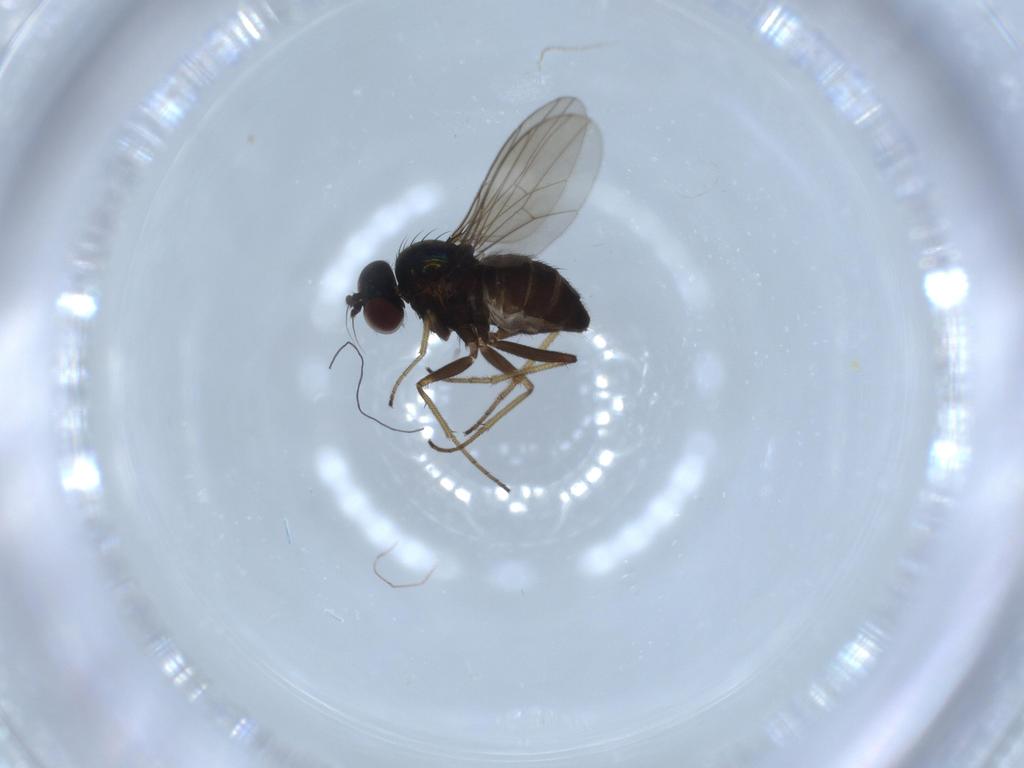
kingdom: Animalia
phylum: Arthropoda
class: Insecta
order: Diptera
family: Dolichopodidae
